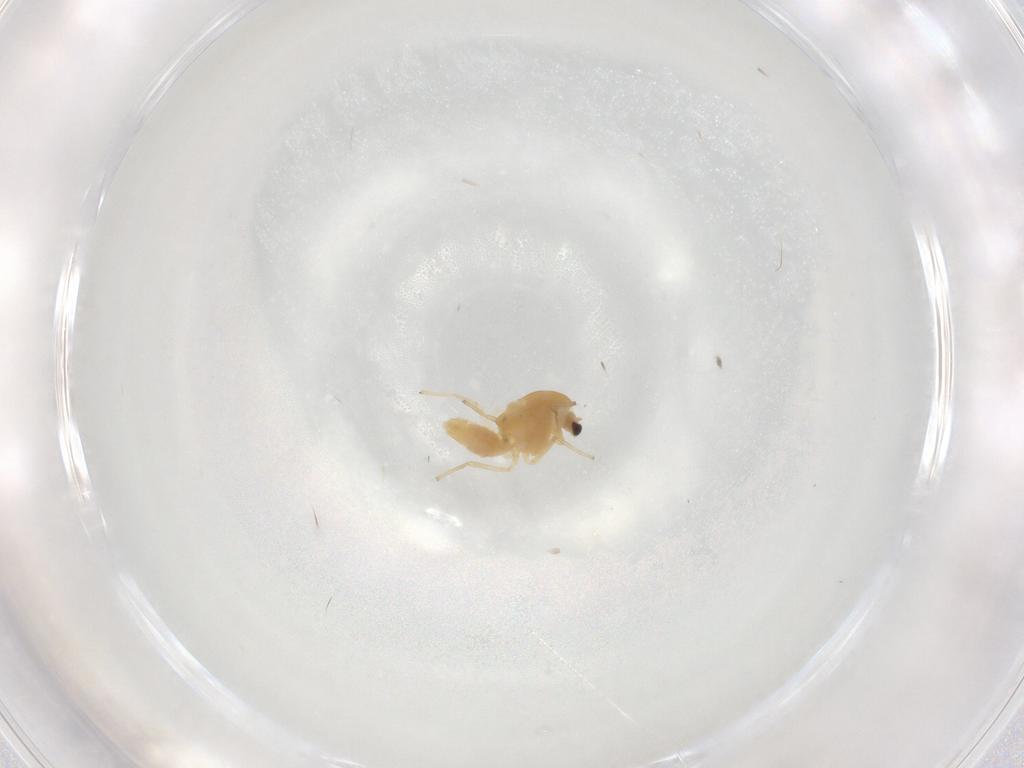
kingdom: Animalia
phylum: Arthropoda
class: Insecta
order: Diptera
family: Chironomidae
